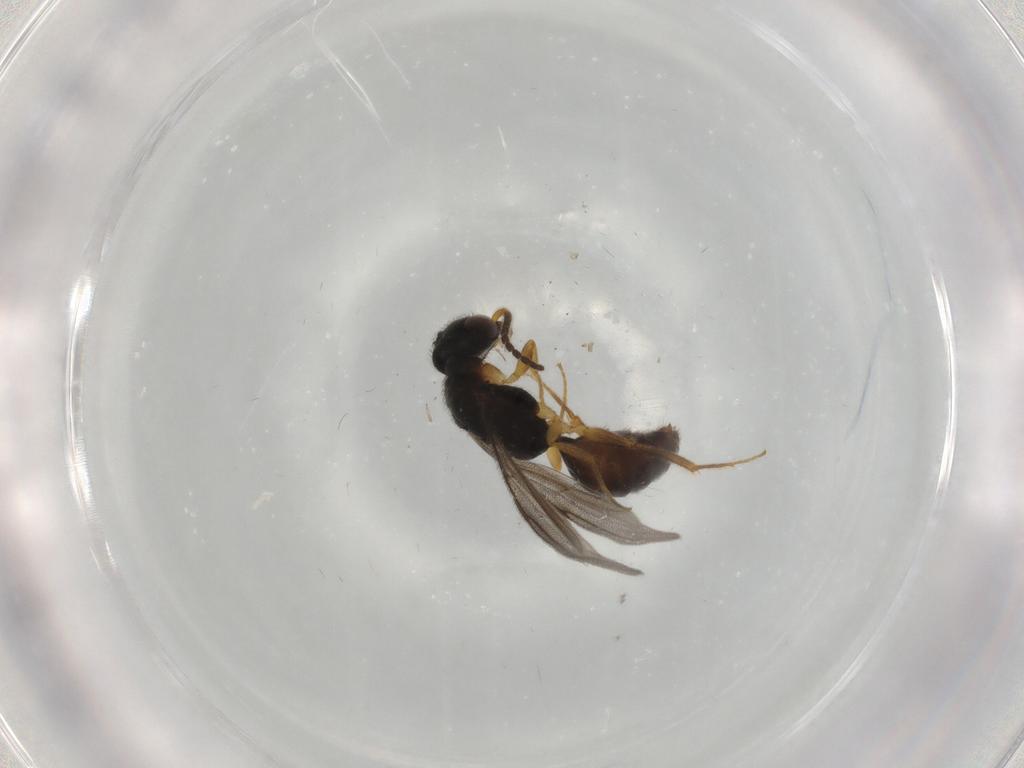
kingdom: Animalia
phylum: Arthropoda
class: Insecta
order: Hymenoptera
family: Bethylidae
